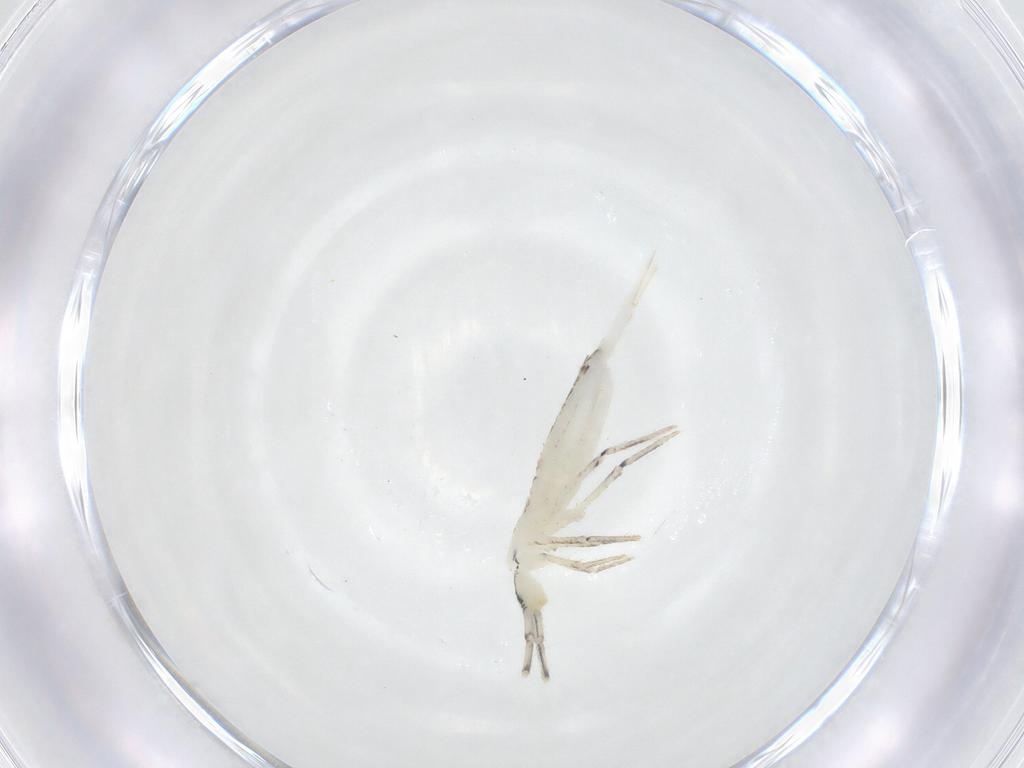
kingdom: Animalia
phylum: Arthropoda
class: Collembola
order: Entomobryomorpha
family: Entomobryidae
